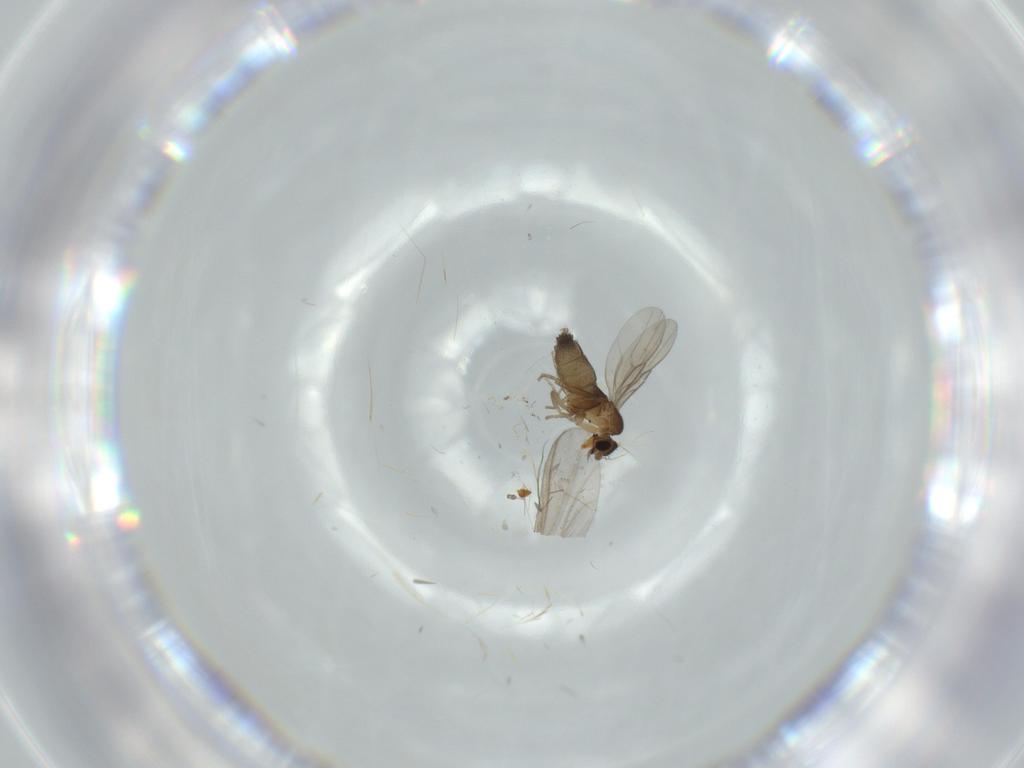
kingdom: Animalia
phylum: Arthropoda
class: Insecta
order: Diptera
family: Cecidomyiidae
